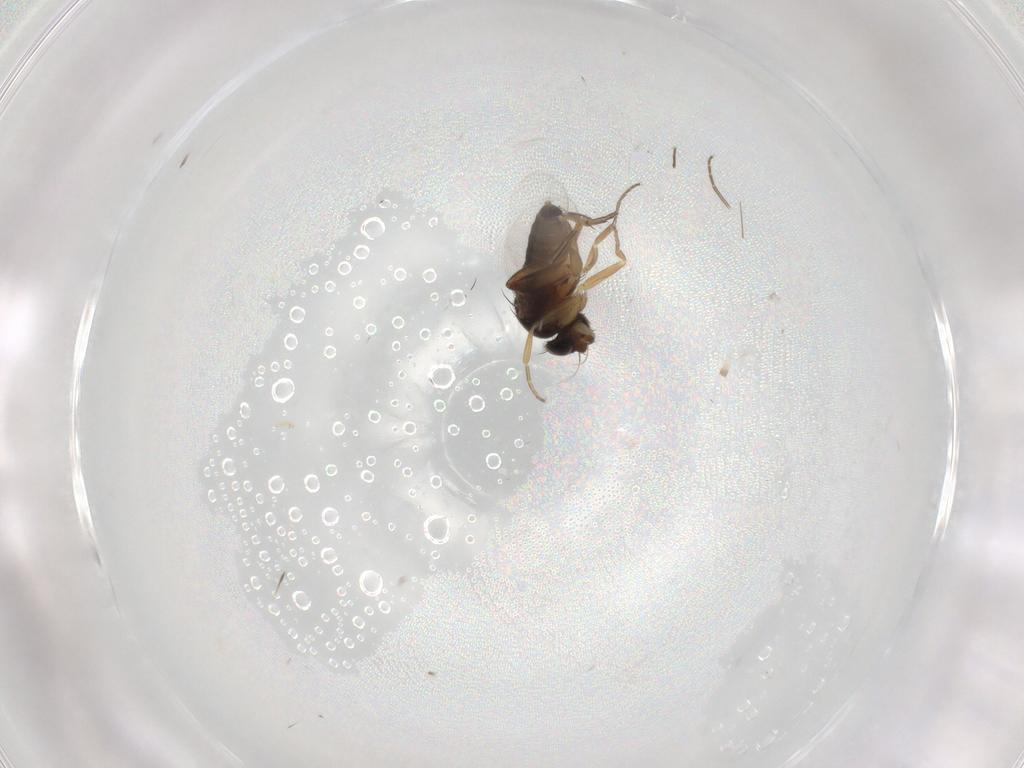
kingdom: Animalia
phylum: Arthropoda
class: Insecta
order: Diptera
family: Phoridae
